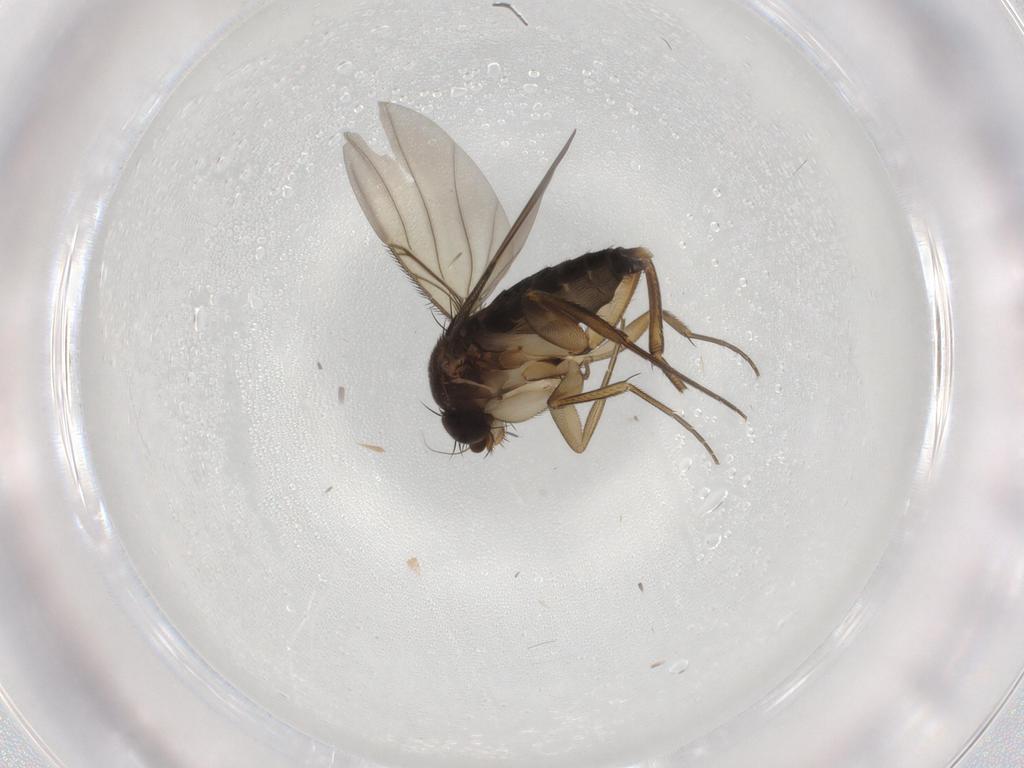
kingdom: Animalia
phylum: Arthropoda
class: Insecta
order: Diptera
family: Phoridae
